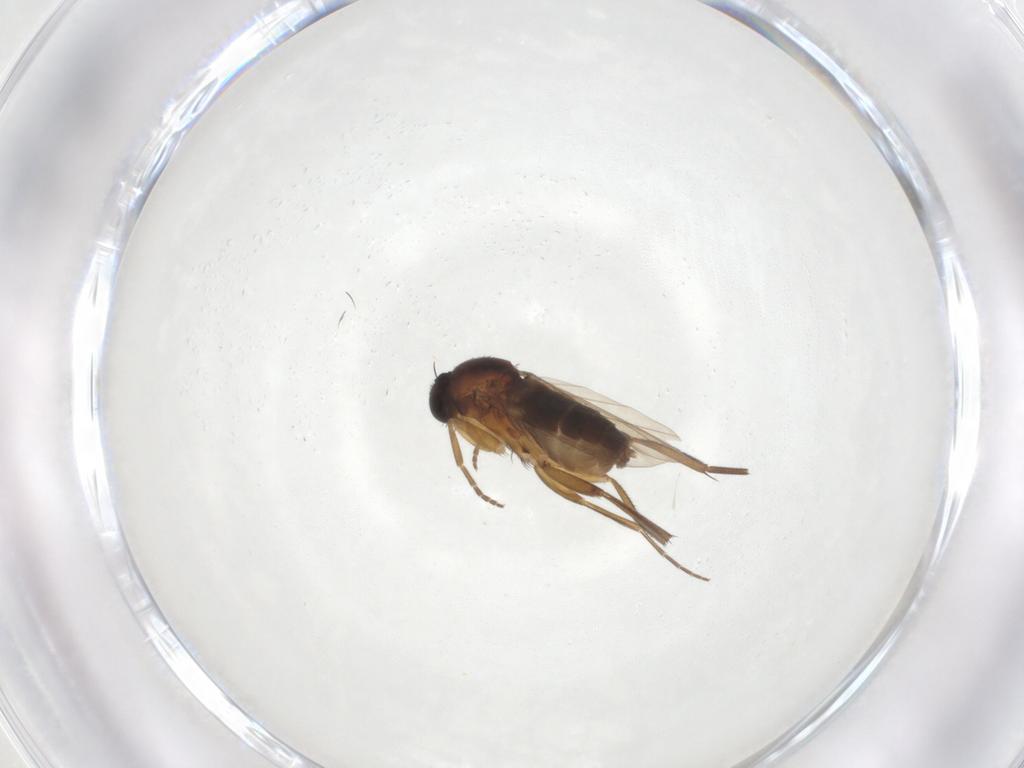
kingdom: Animalia
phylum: Arthropoda
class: Insecta
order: Diptera
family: Phoridae
